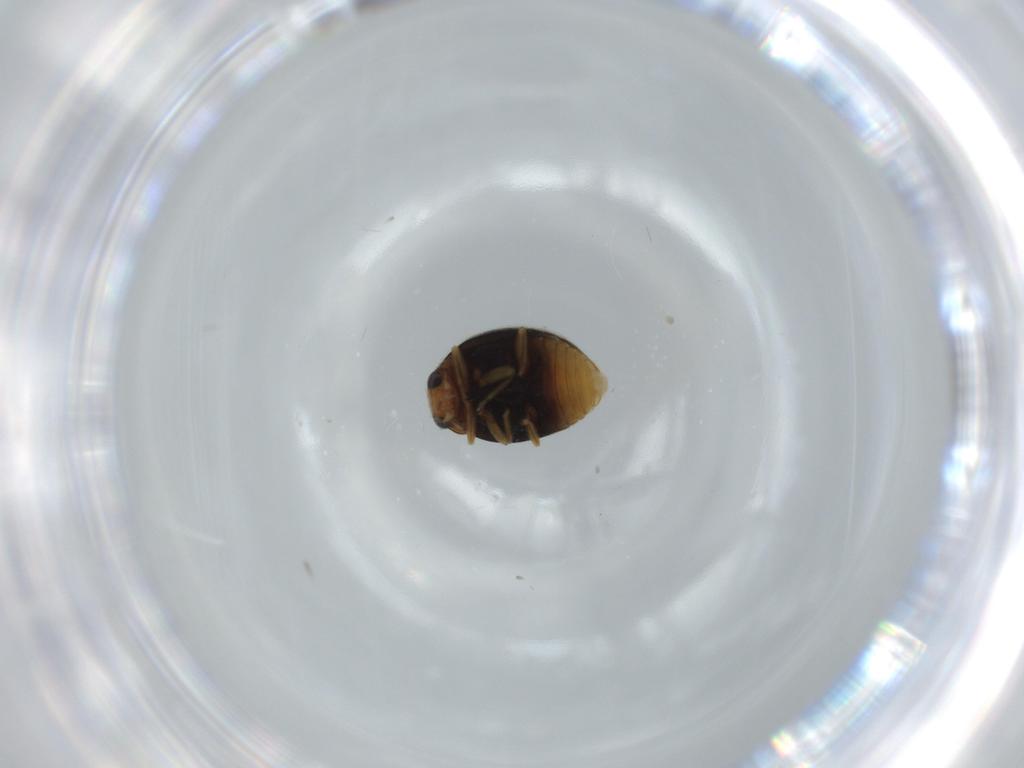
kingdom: Animalia
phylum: Arthropoda
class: Insecta
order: Coleoptera
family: Coccinellidae
